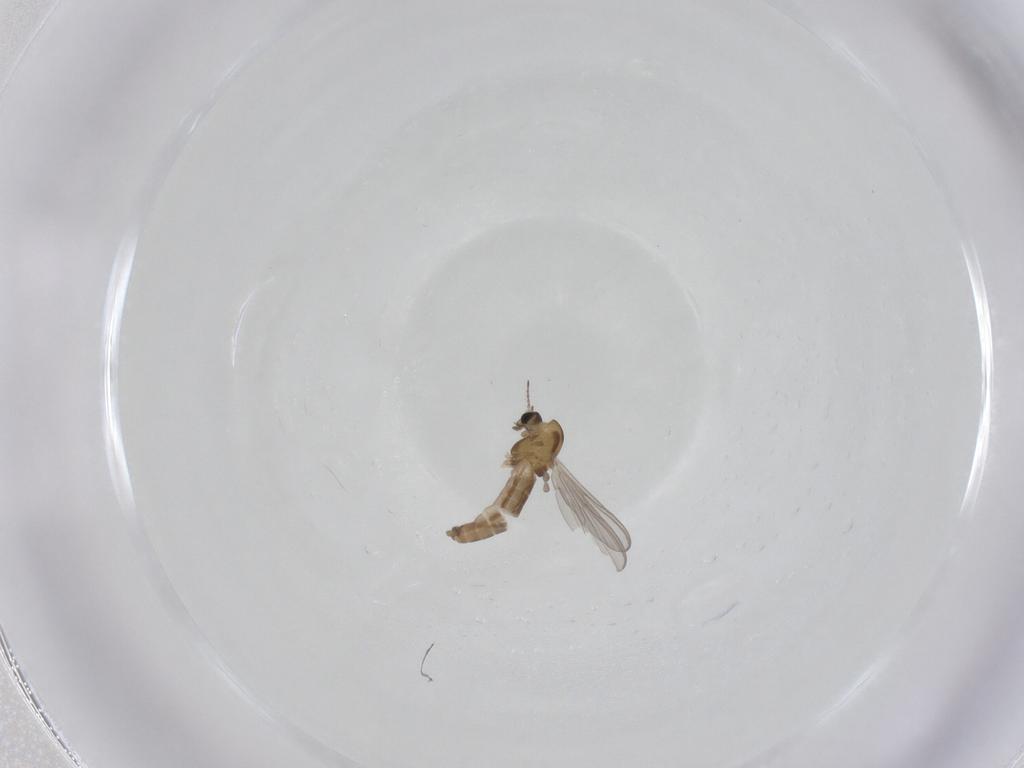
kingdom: Animalia
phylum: Arthropoda
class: Insecta
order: Diptera
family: Chironomidae
